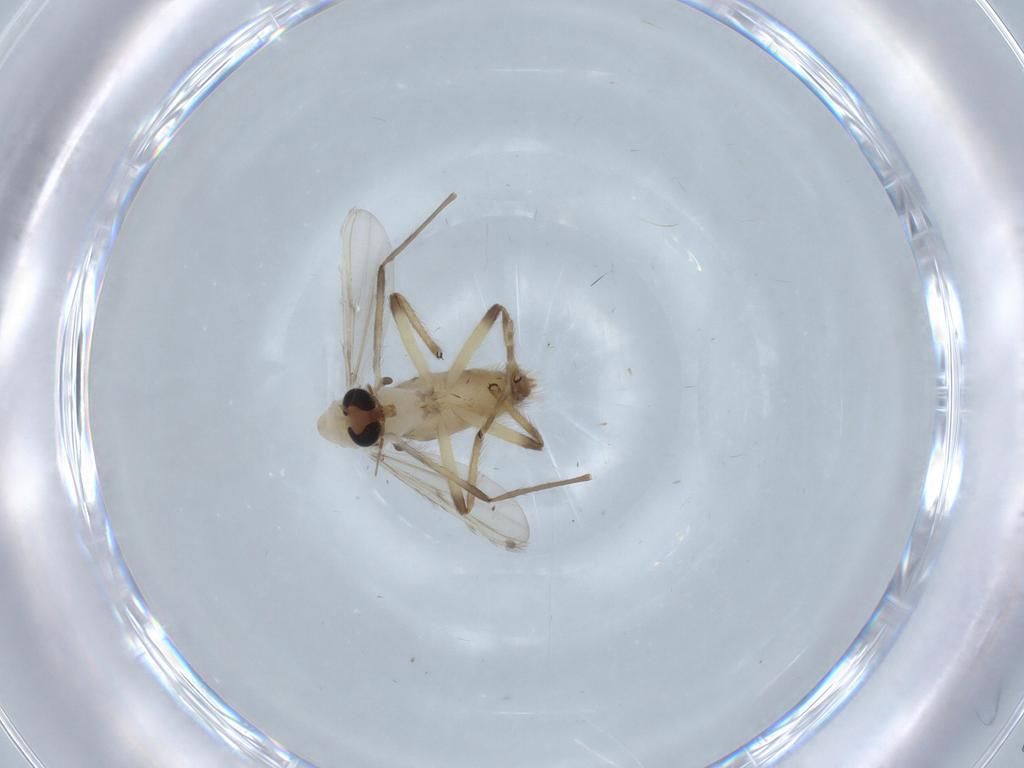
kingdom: Animalia
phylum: Arthropoda
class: Insecta
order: Diptera
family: Chironomidae
